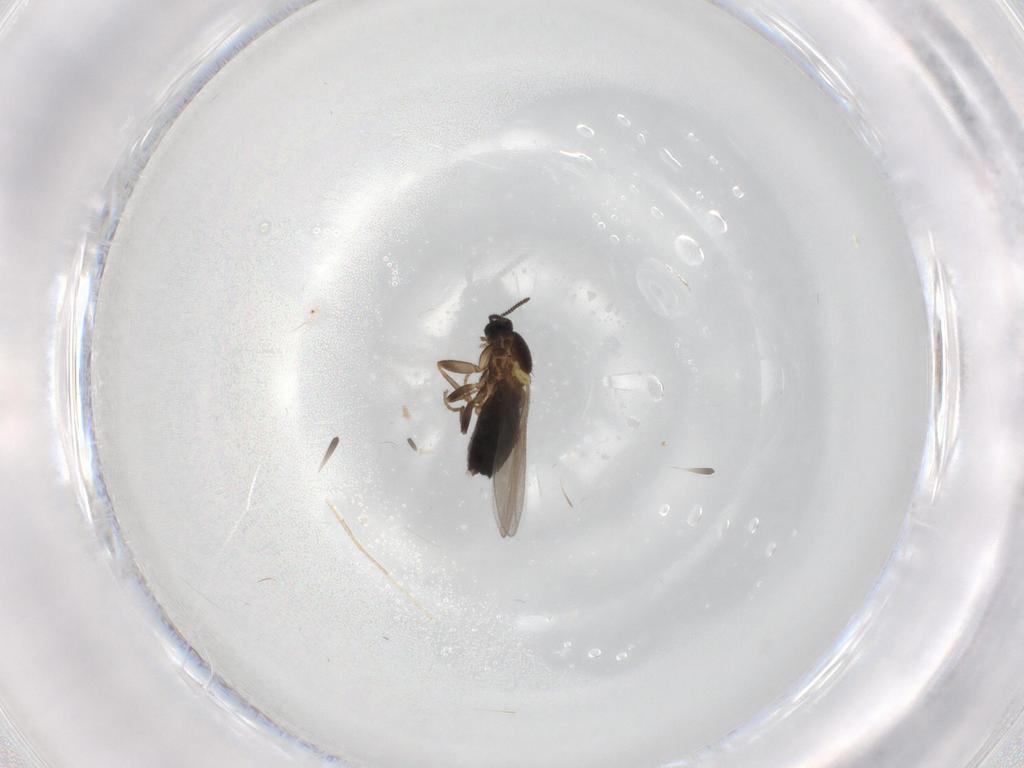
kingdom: Animalia
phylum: Arthropoda
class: Insecta
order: Diptera
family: Scatopsidae
